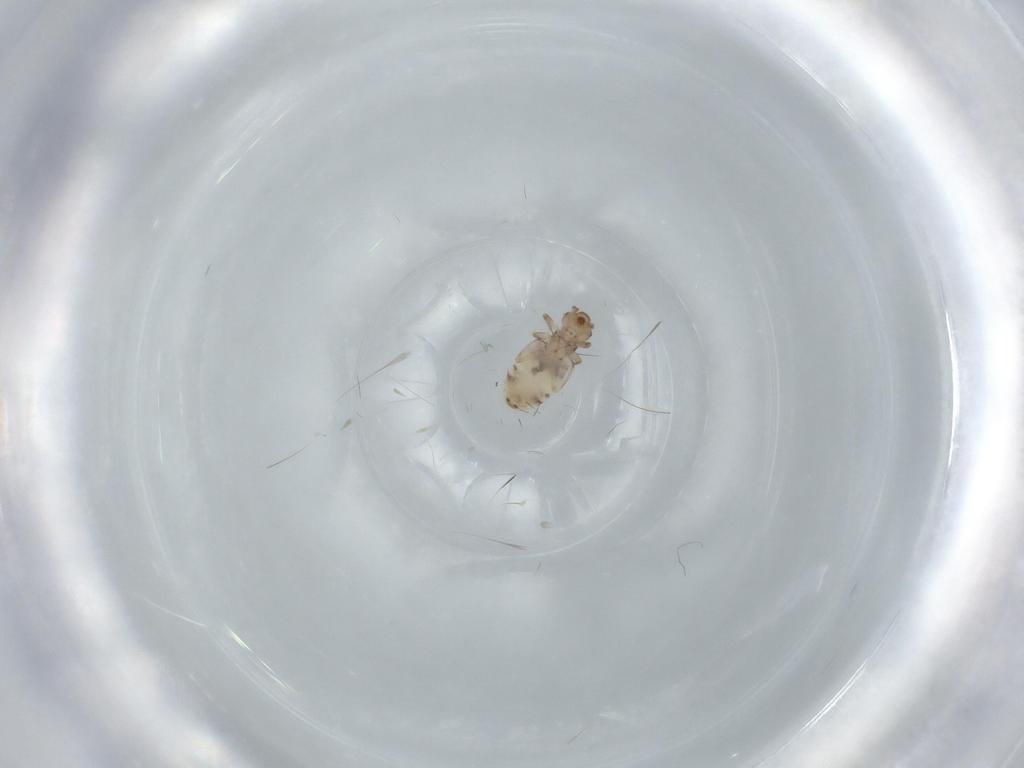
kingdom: Animalia
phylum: Arthropoda
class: Insecta
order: Psocodea
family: Liposcelididae
